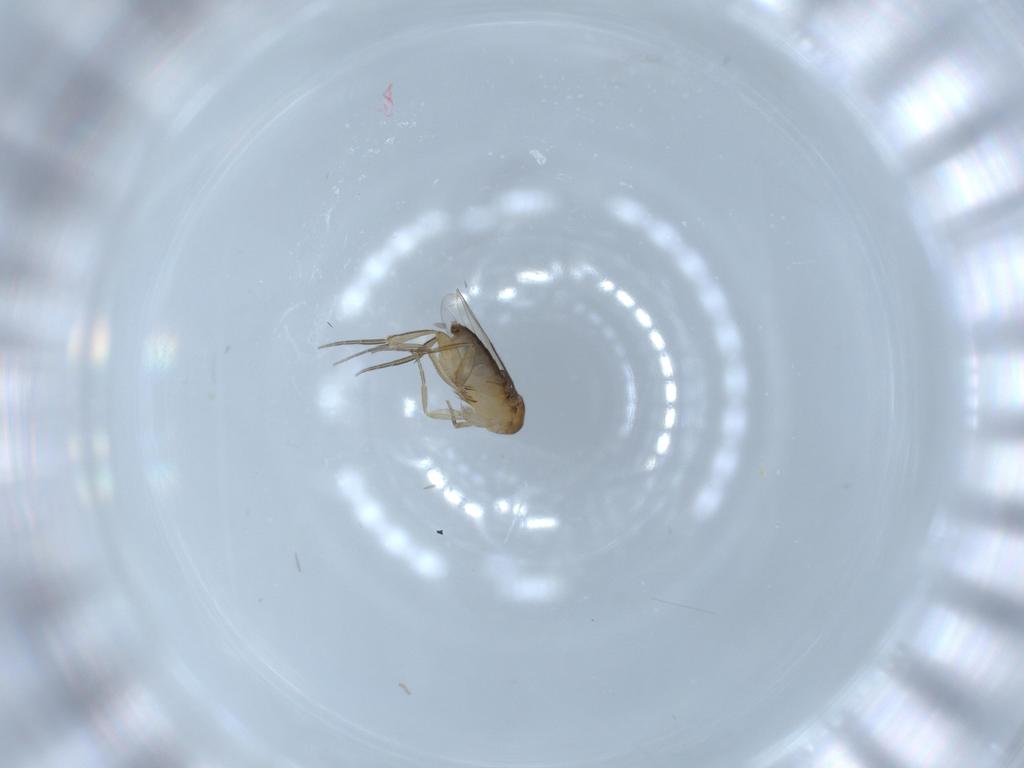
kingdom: Animalia
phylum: Arthropoda
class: Insecta
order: Diptera
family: Phoridae
